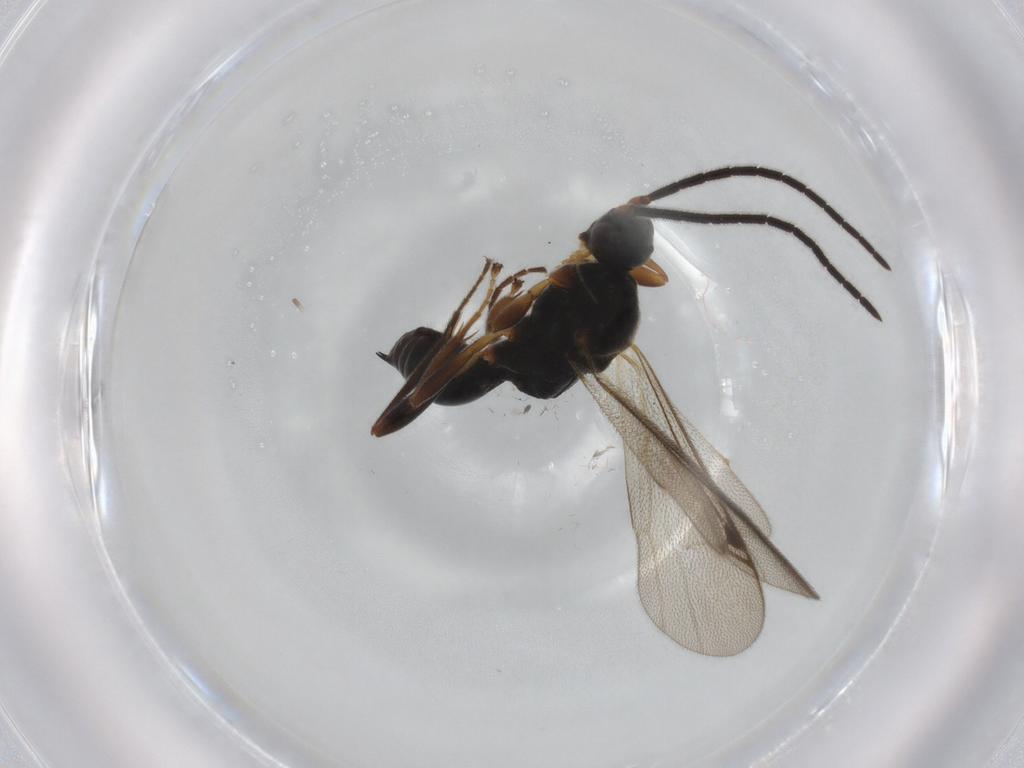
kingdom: Animalia
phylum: Arthropoda
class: Insecta
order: Hymenoptera
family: Proctotrupidae
